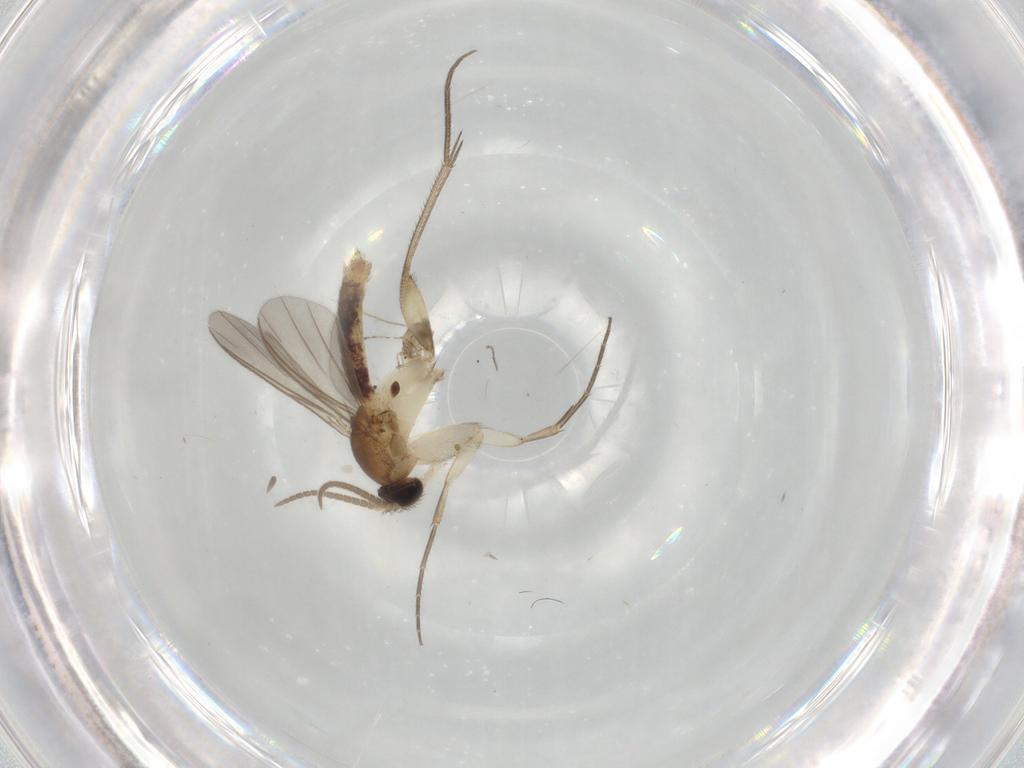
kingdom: Animalia
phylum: Arthropoda
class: Insecta
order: Diptera
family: Mycetophilidae
